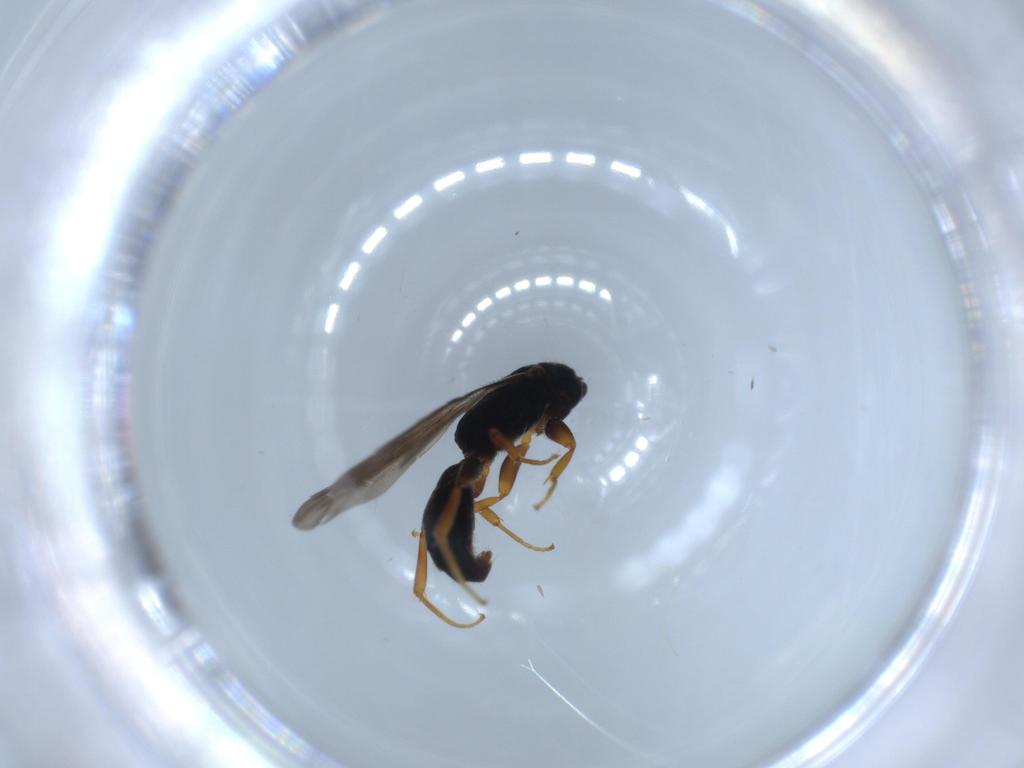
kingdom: Animalia
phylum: Arthropoda
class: Insecta
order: Hymenoptera
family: Bethylidae
